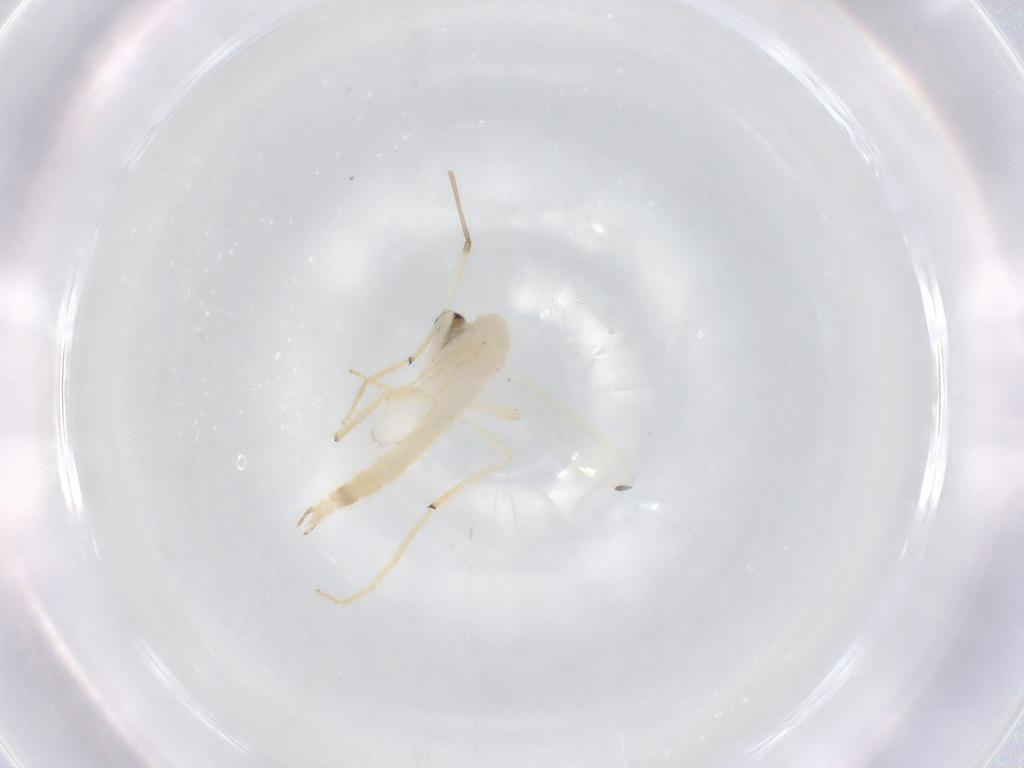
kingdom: Animalia
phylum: Arthropoda
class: Insecta
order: Diptera
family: Chironomidae
